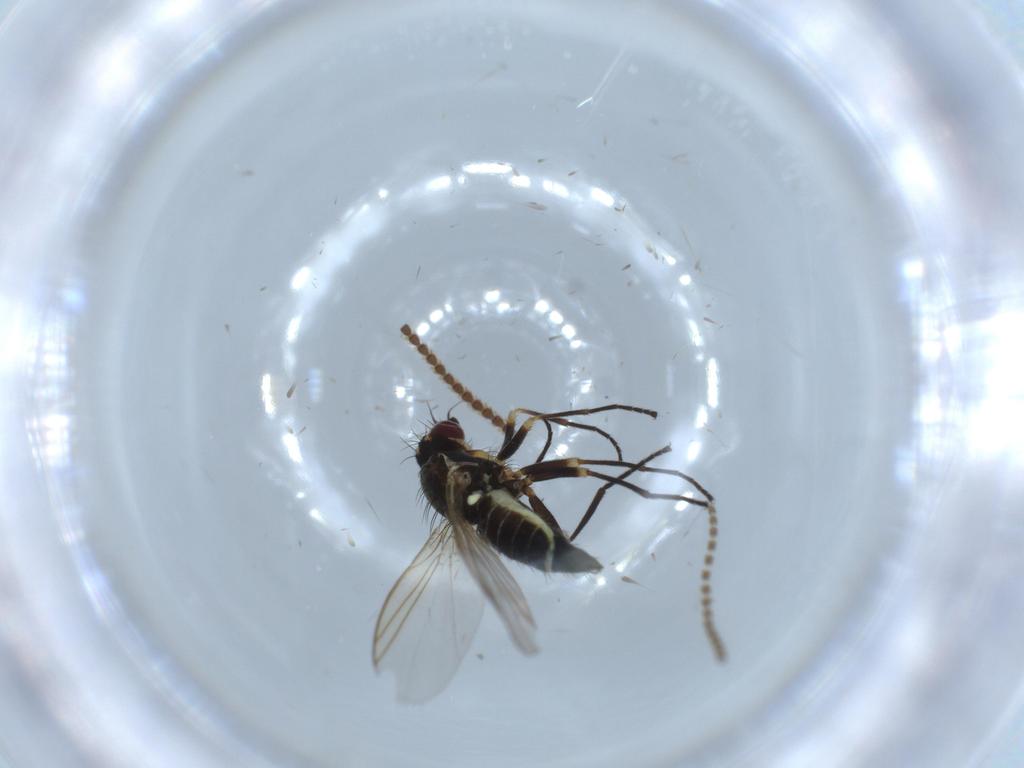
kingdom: Animalia
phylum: Arthropoda
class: Insecta
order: Diptera
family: Agromyzidae
